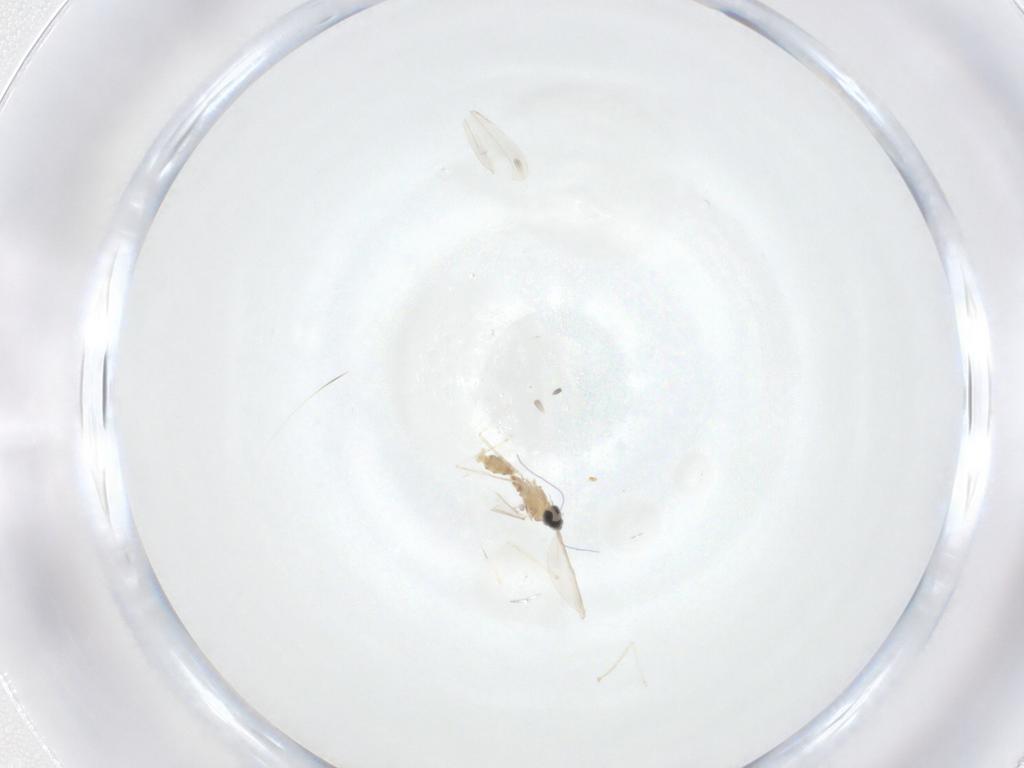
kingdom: Animalia
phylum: Arthropoda
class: Insecta
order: Diptera
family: Cecidomyiidae
